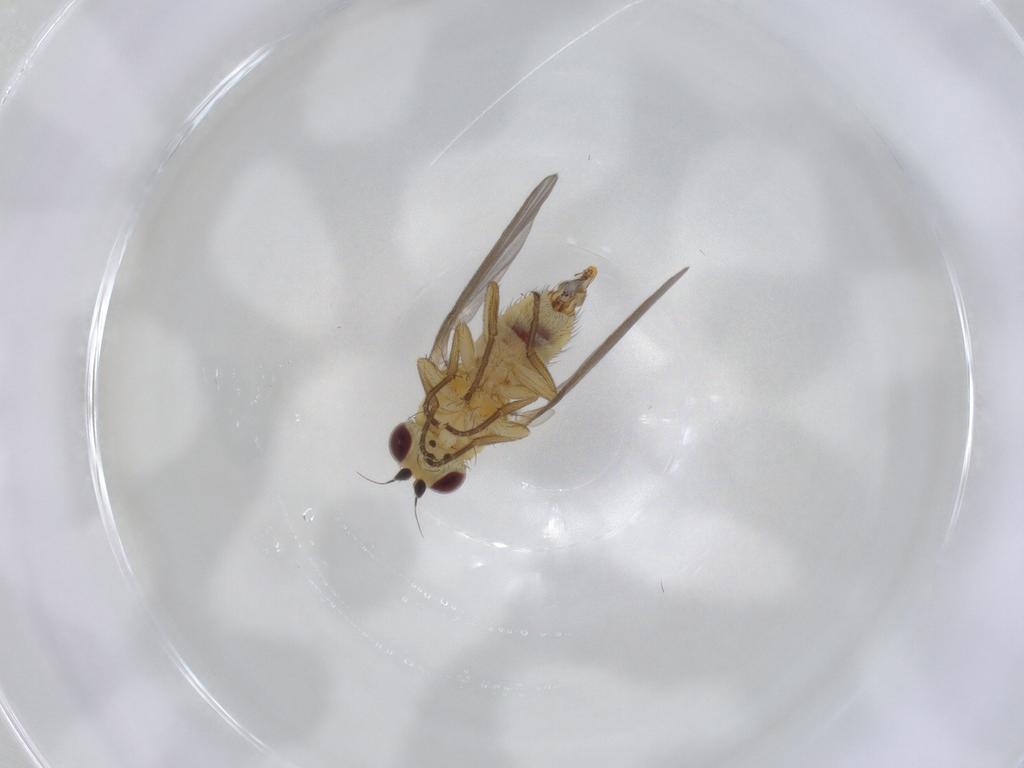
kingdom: Animalia
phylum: Arthropoda
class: Insecta
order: Diptera
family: Agromyzidae
